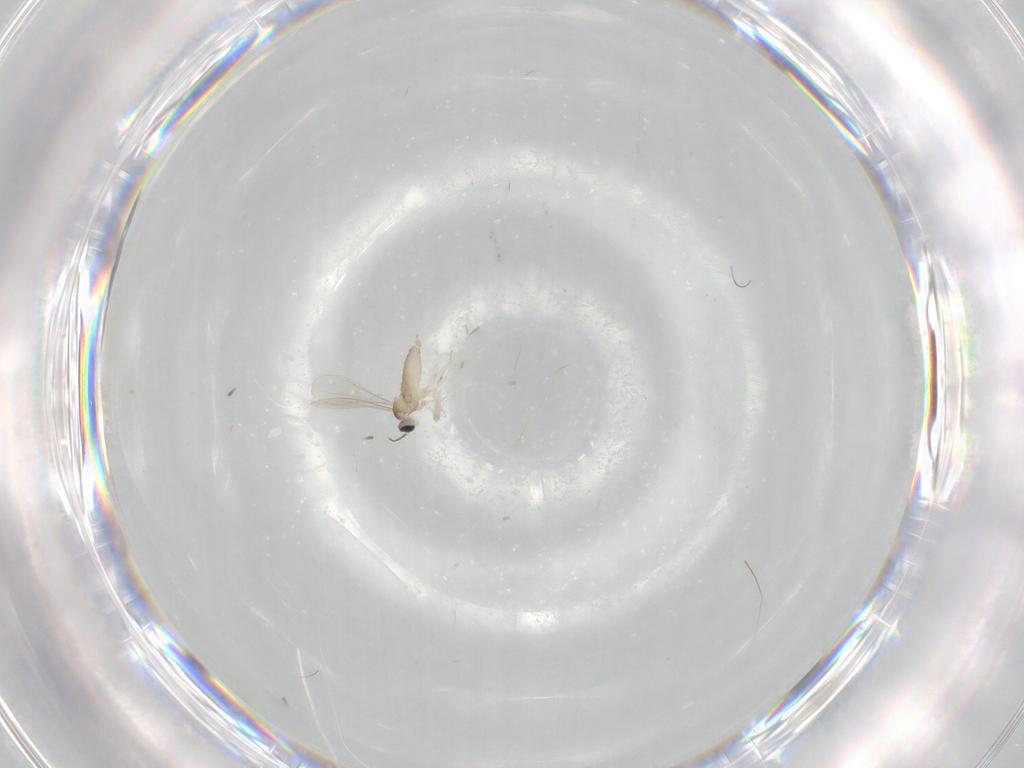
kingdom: Animalia
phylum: Arthropoda
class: Insecta
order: Diptera
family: Cecidomyiidae
